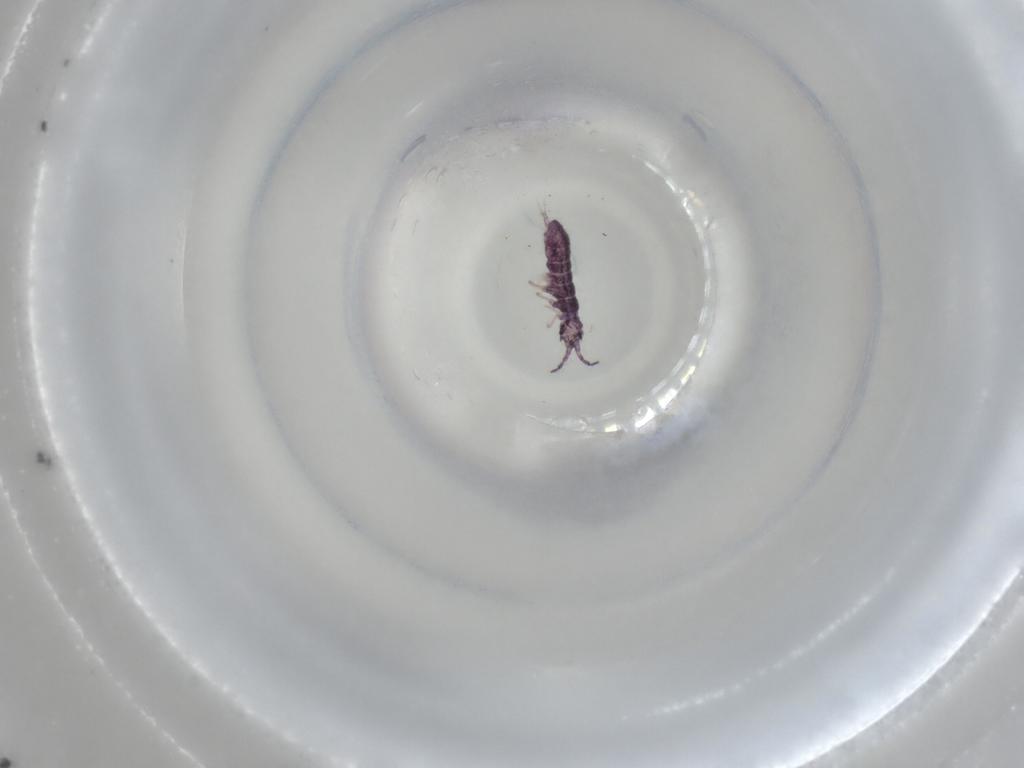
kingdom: Animalia
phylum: Arthropoda
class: Collembola
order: Entomobryomorpha
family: Isotomidae
